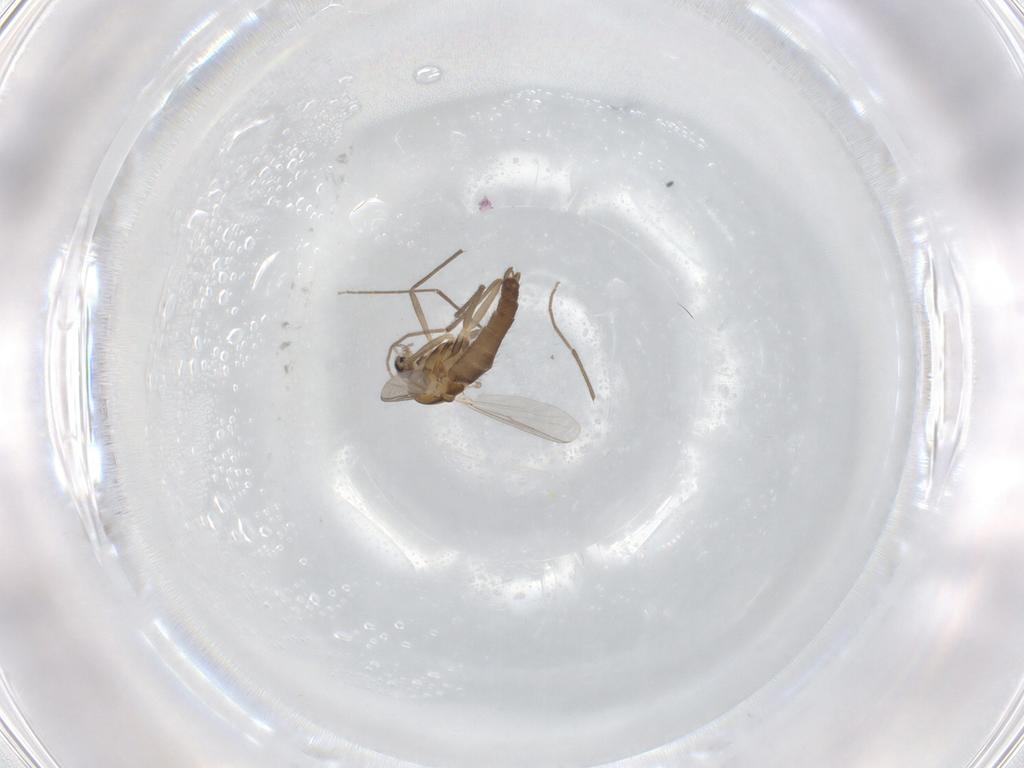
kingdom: Animalia
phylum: Arthropoda
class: Insecta
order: Diptera
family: Chironomidae
